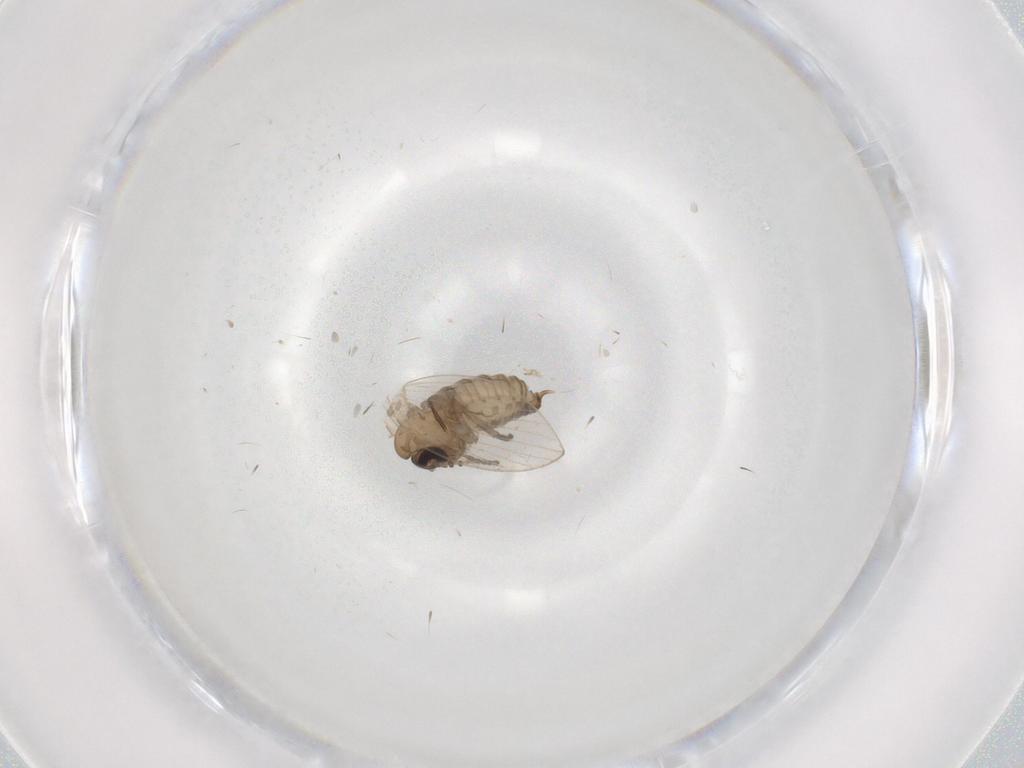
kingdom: Animalia
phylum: Arthropoda
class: Insecta
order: Diptera
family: Psychodidae
